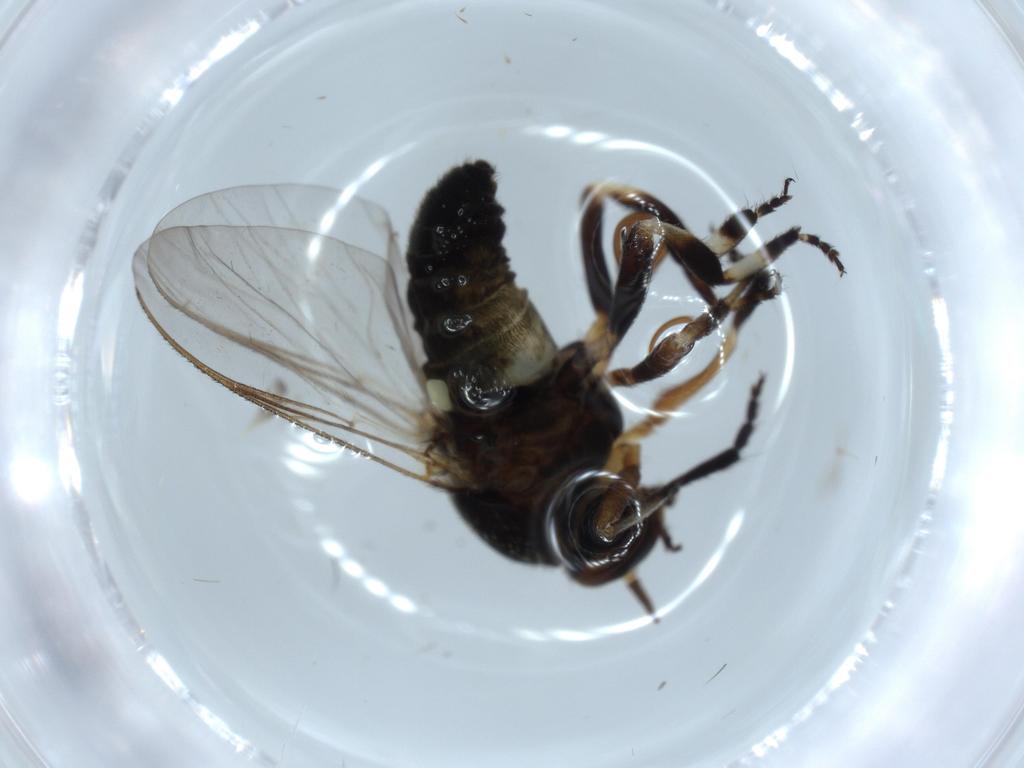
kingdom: Animalia
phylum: Arthropoda
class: Insecta
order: Diptera
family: Hybotidae
